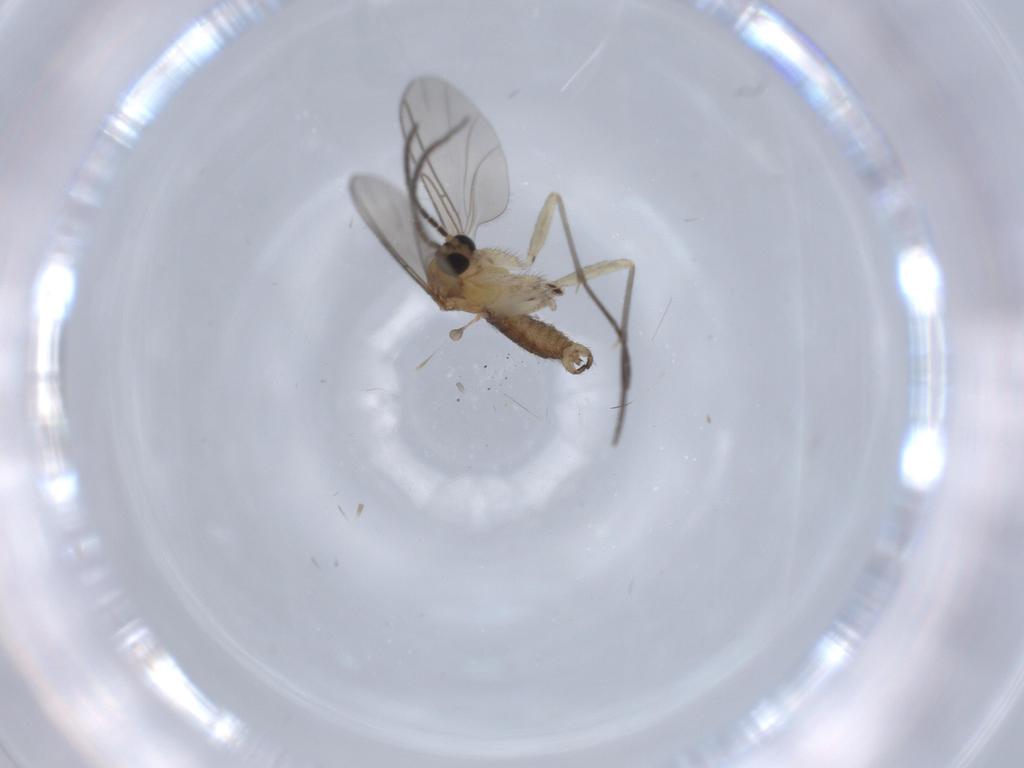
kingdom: Animalia
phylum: Arthropoda
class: Insecta
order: Diptera
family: Sciaridae
